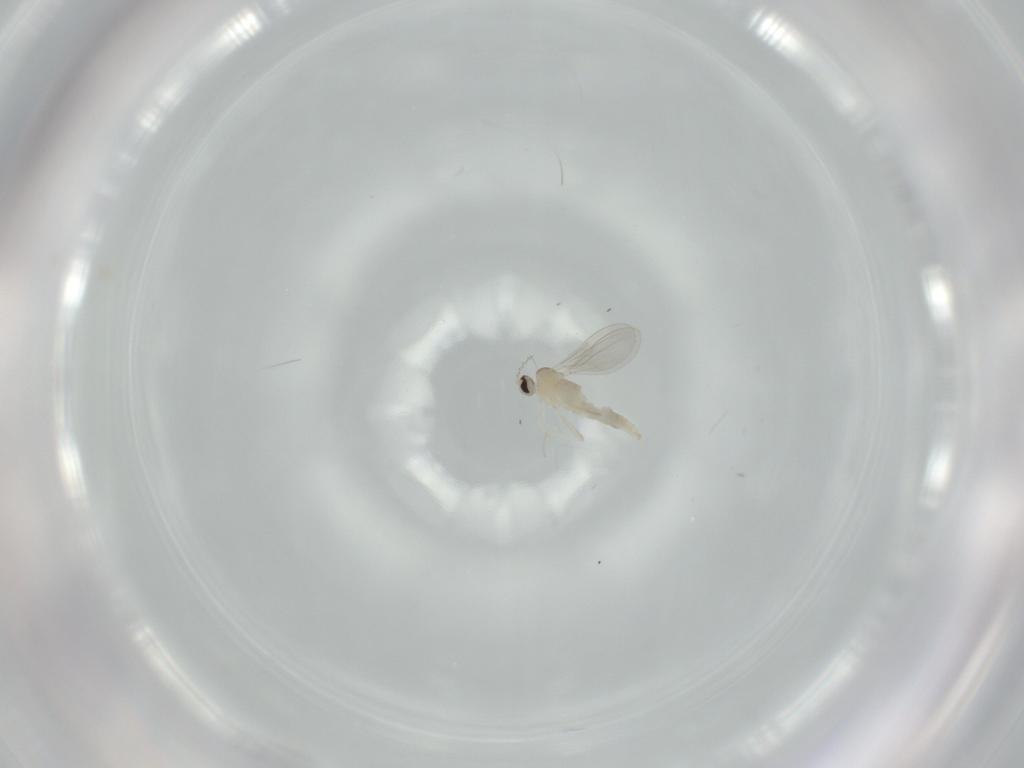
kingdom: Animalia
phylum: Arthropoda
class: Insecta
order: Diptera
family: Cecidomyiidae
